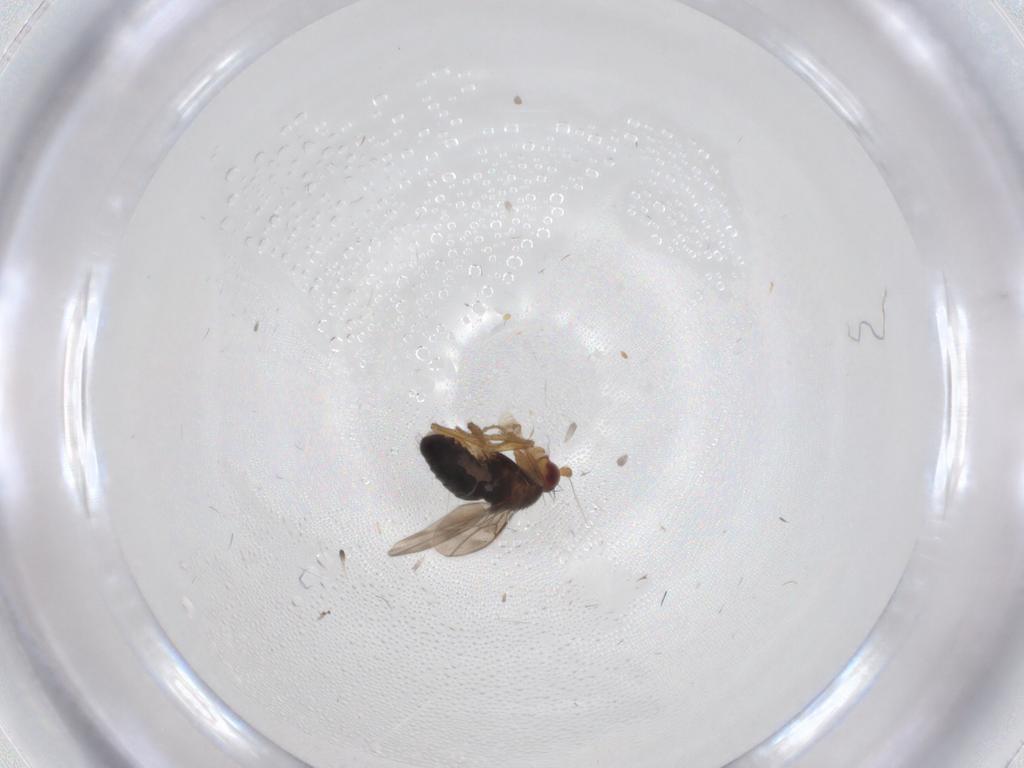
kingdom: Animalia
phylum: Arthropoda
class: Insecta
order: Diptera
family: Sphaeroceridae
